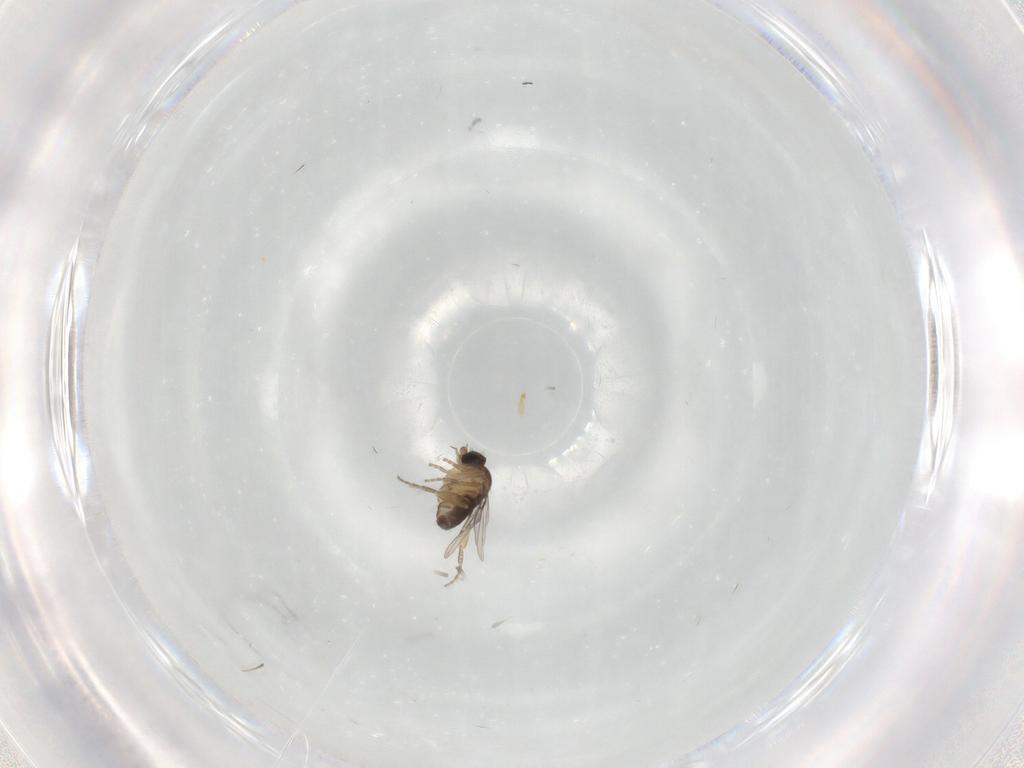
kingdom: Animalia
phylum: Arthropoda
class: Insecta
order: Diptera
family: Phoridae
